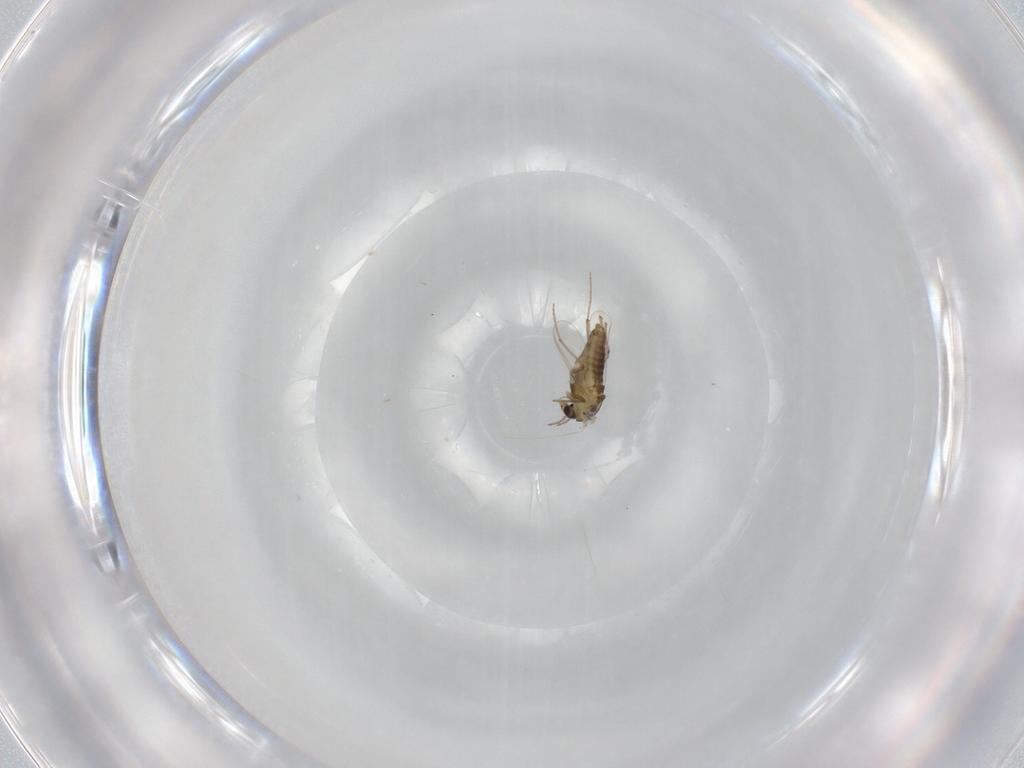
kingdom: Animalia
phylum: Arthropoda
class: Insecta
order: Diptera
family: Chironomidae
